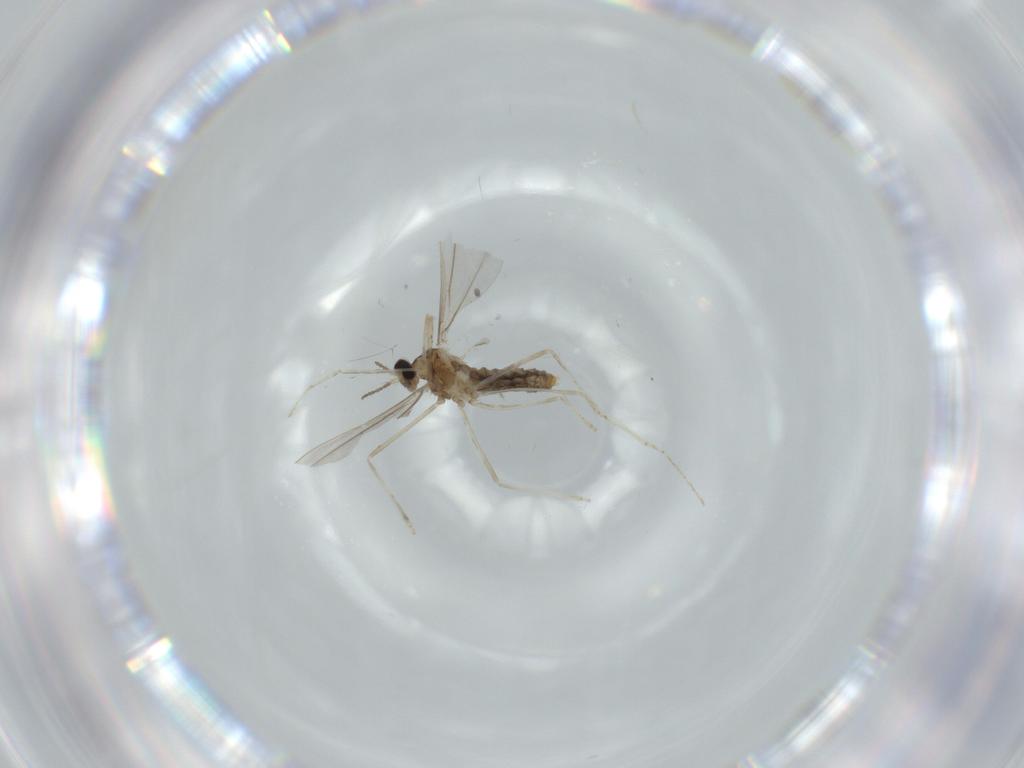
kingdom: Animalia
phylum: Arthropoda
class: Insecta
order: Diptera
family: Cecidomyiidae
